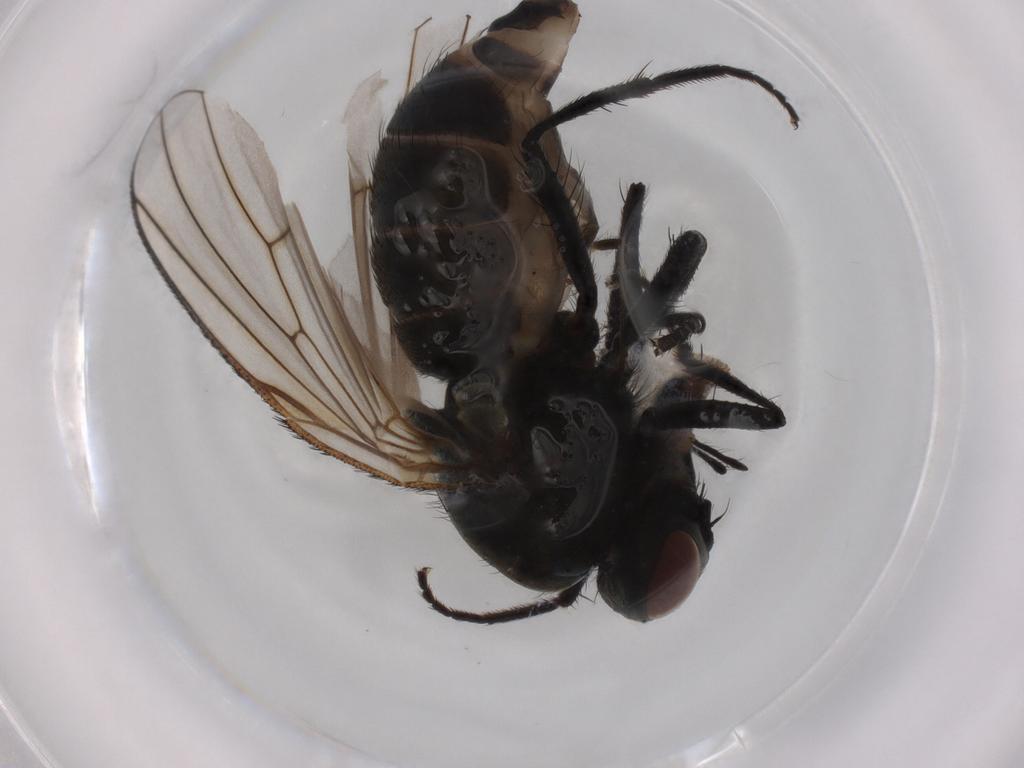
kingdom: Animalia
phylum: Arthropoda
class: Insecta
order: Diptera
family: Muscidae
